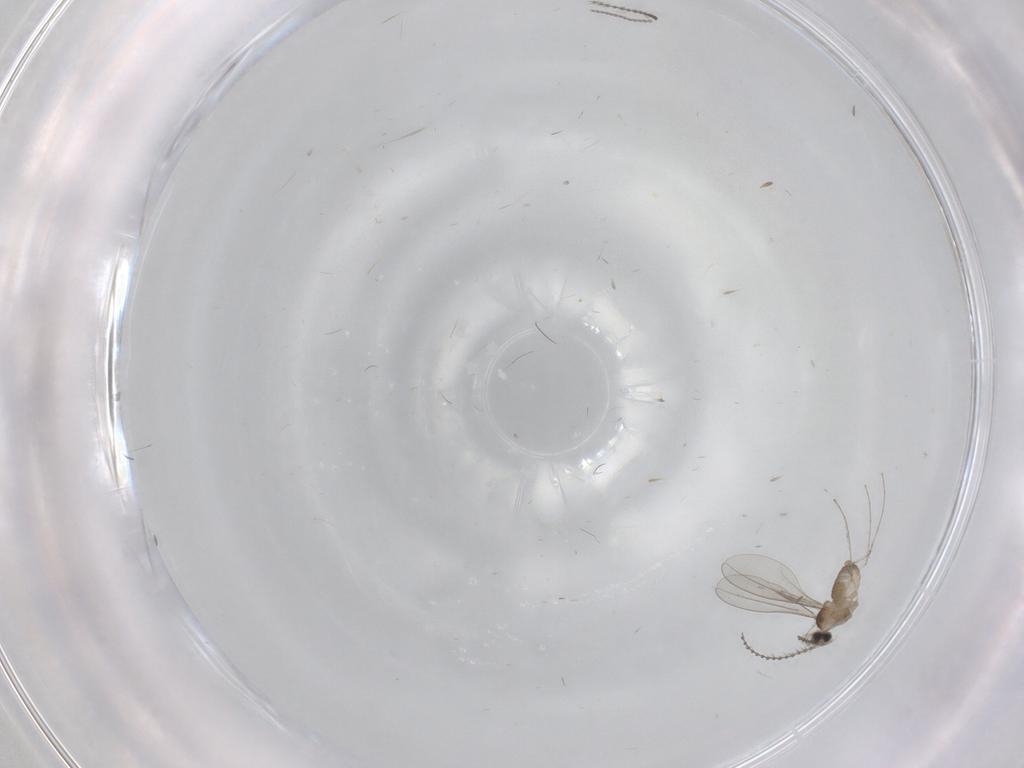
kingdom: Animalia
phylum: Arthropoda
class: Insecta
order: Diptera
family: Cecidomyiidae
